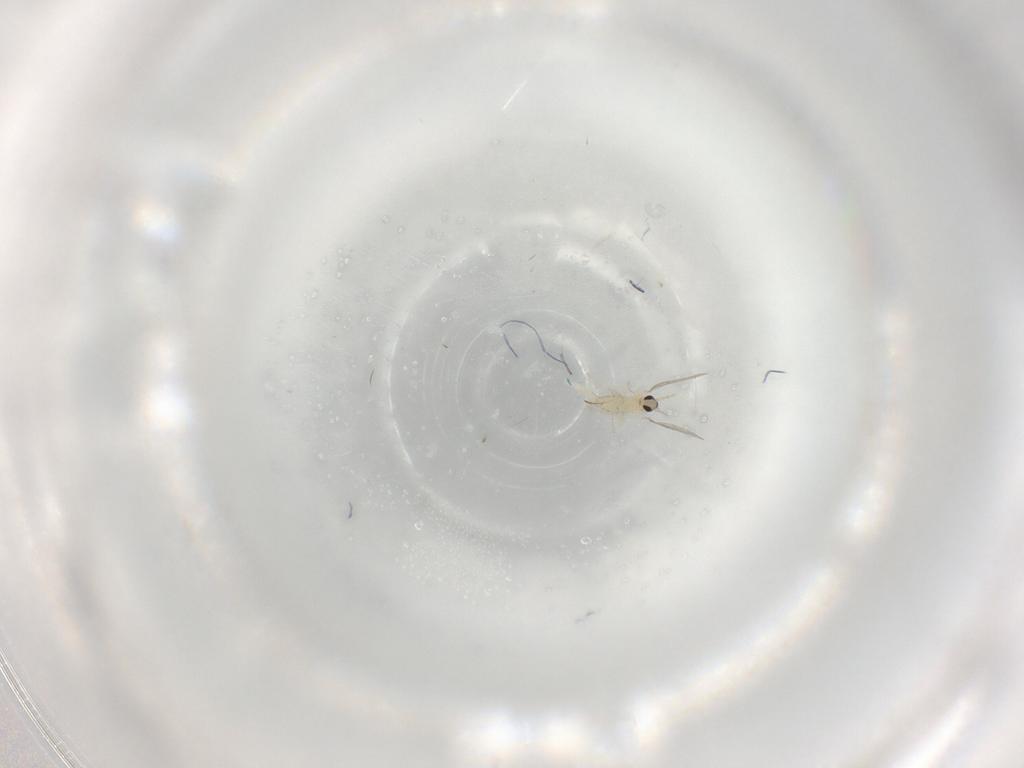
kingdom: Animalia
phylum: Arthropoda
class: Insecta
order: Diptera
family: Cecidomyiidae
